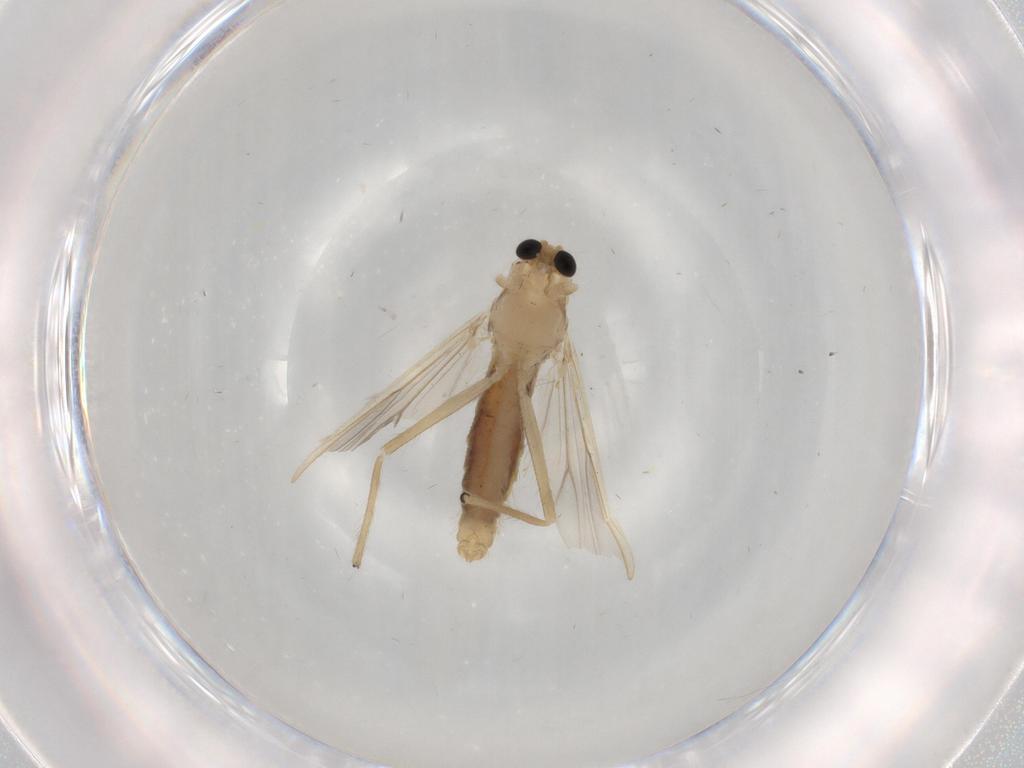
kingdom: Animalia
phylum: Arthropoda
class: Insecta
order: Diptera
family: Chironomidae
